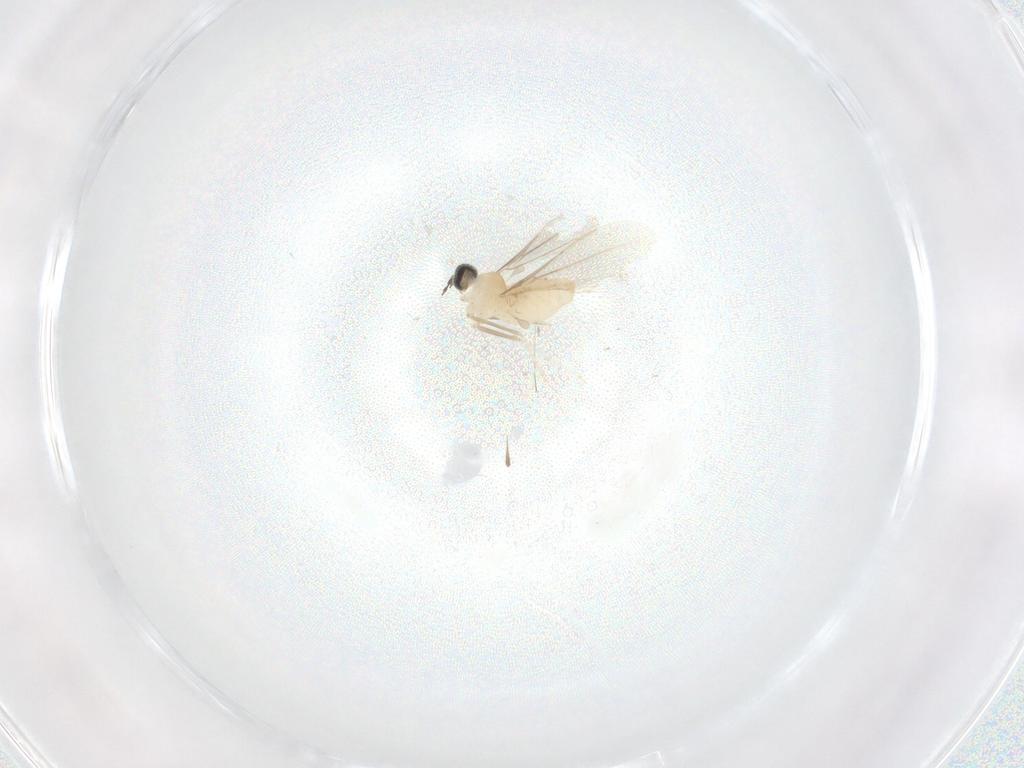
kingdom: Animalia
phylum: Arthropoda
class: Insecta
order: Diptera
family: Cecidomyiidae
